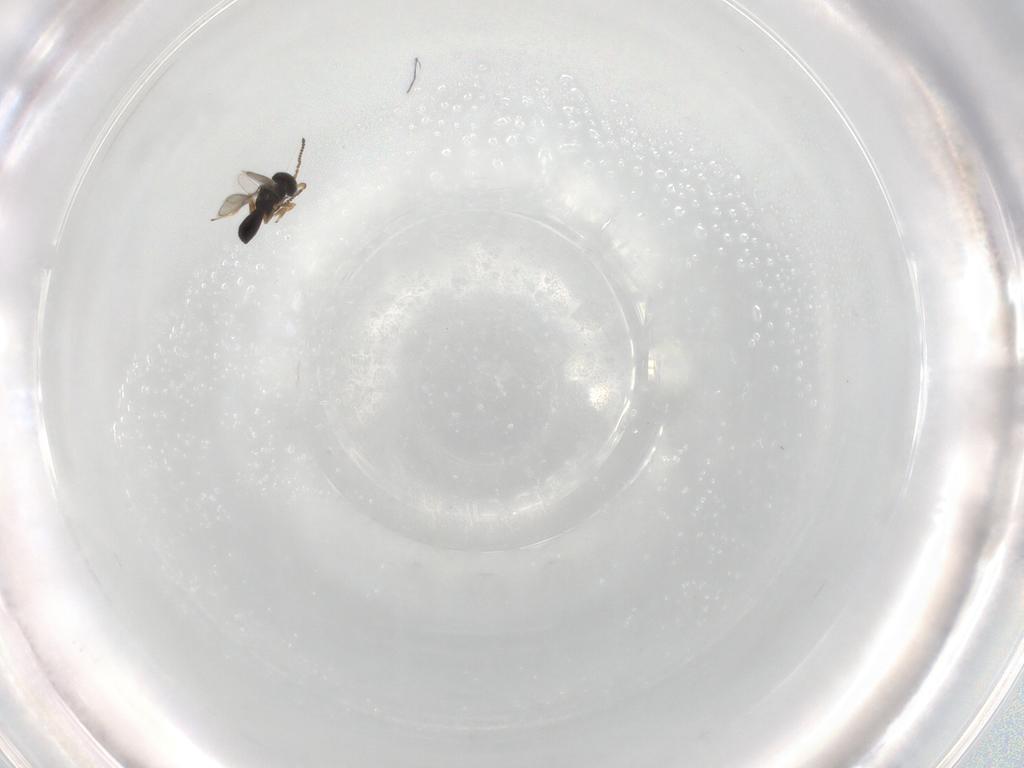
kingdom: Animalia
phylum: Arthropoda
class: Insecta
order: Hymenoptera
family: Scelionidae
